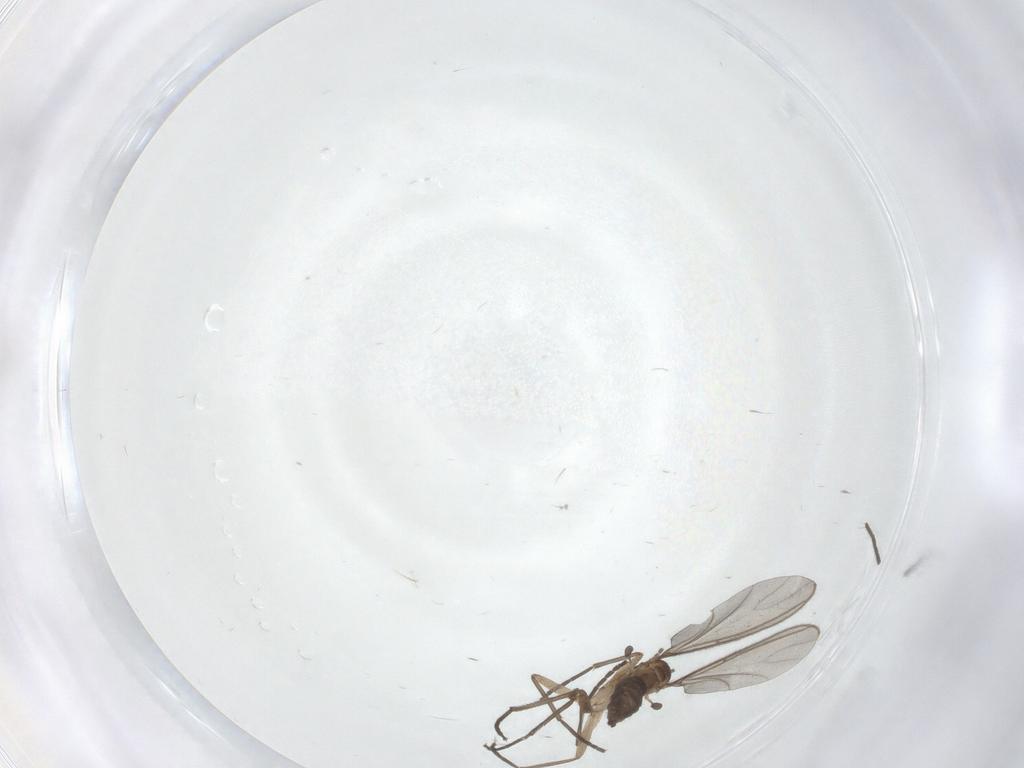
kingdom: Animalia
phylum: Arthropoda
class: Insecta
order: Diptera
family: Sciaridae
